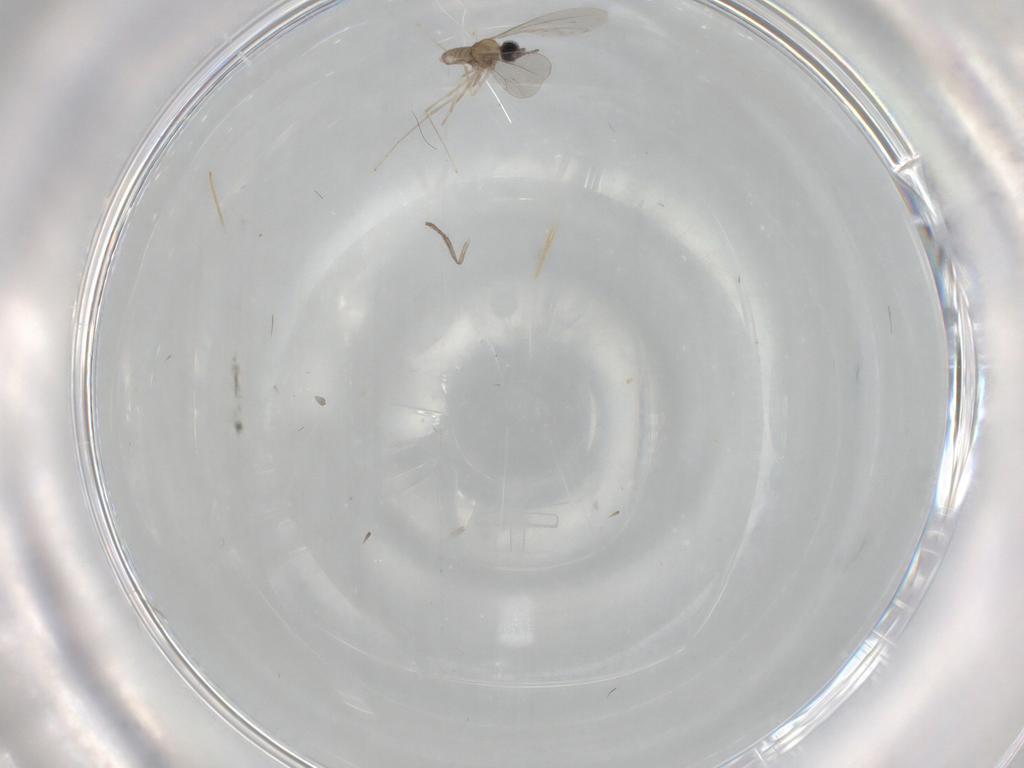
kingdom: Animalia
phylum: Arthropoda
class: Insecta
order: Diptera
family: Cecidomyiidae
